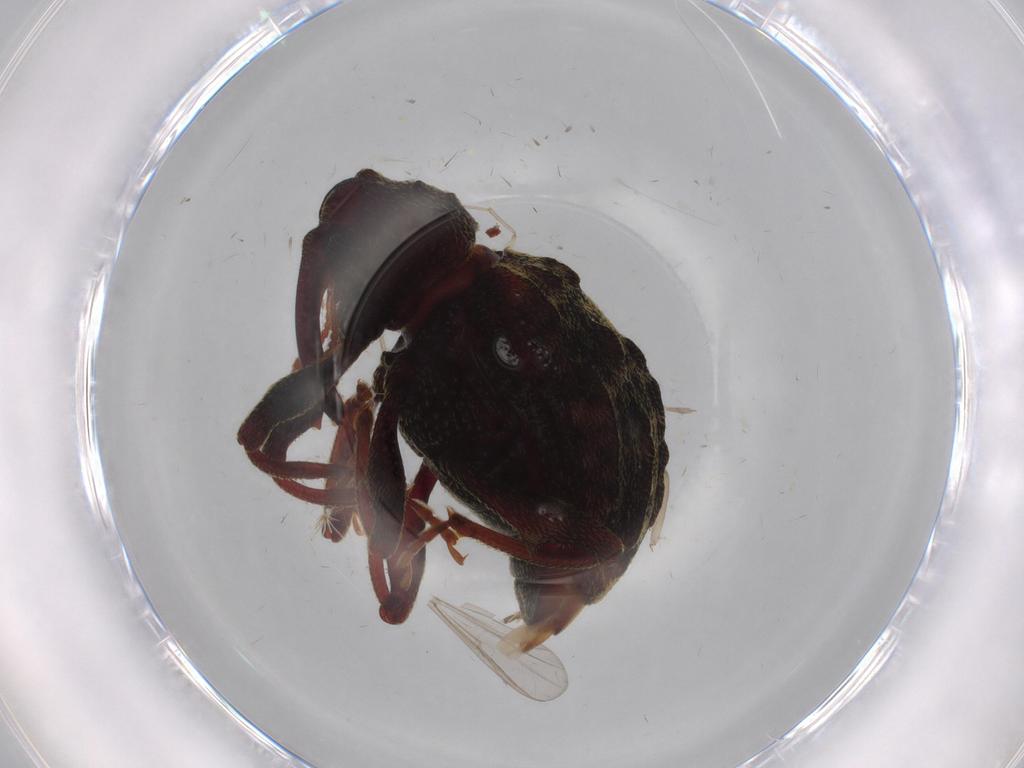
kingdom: Animalia
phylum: Arthropoda
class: Insecta
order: Coleoptera
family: Curculionidae
